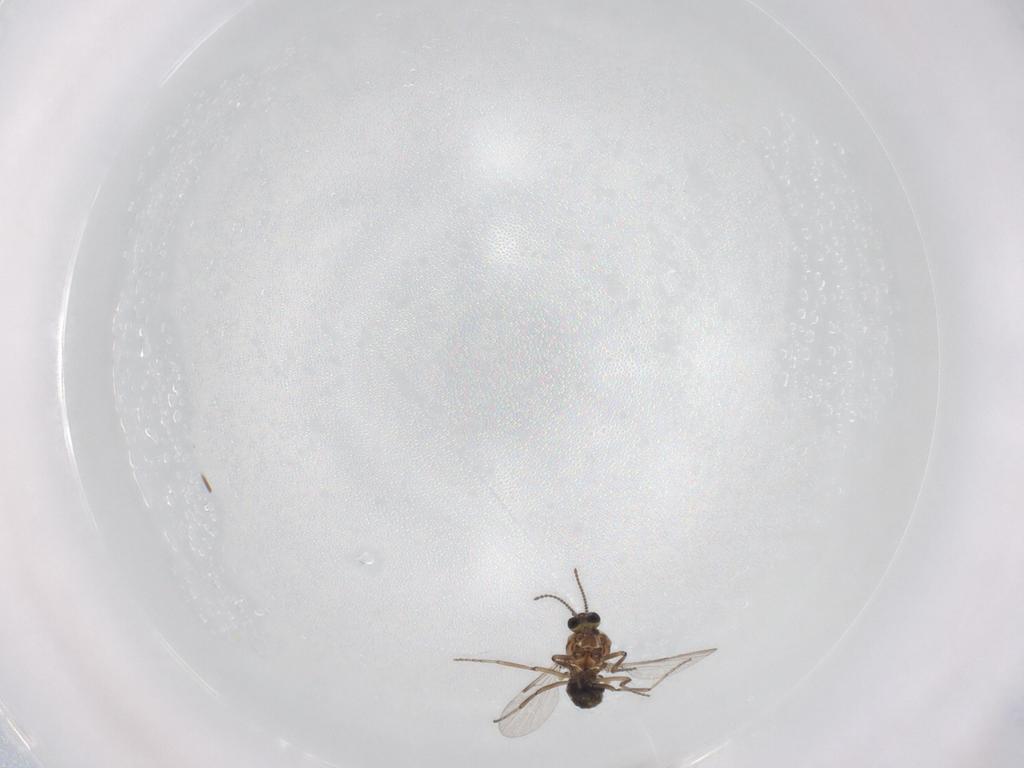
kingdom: Animalia
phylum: Arthropoda
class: Insecta
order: Diptera
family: Ceratopogonidae
